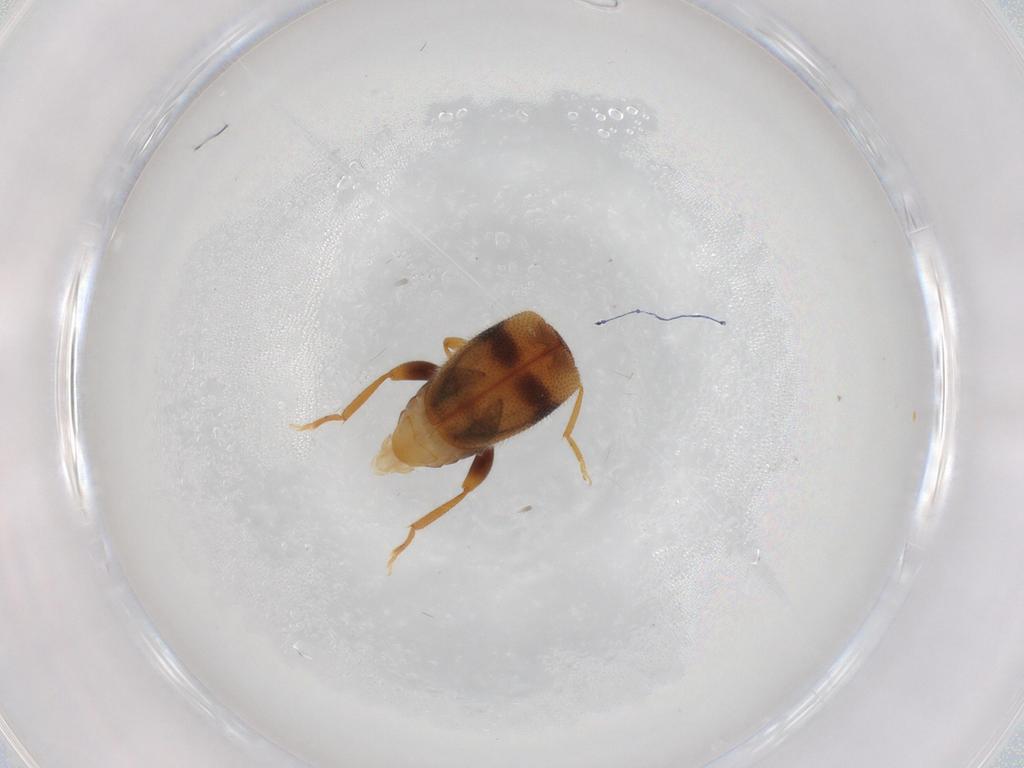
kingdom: Animalia
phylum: Arthropoda
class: Insecta
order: Coleoptera
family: Aderidae
